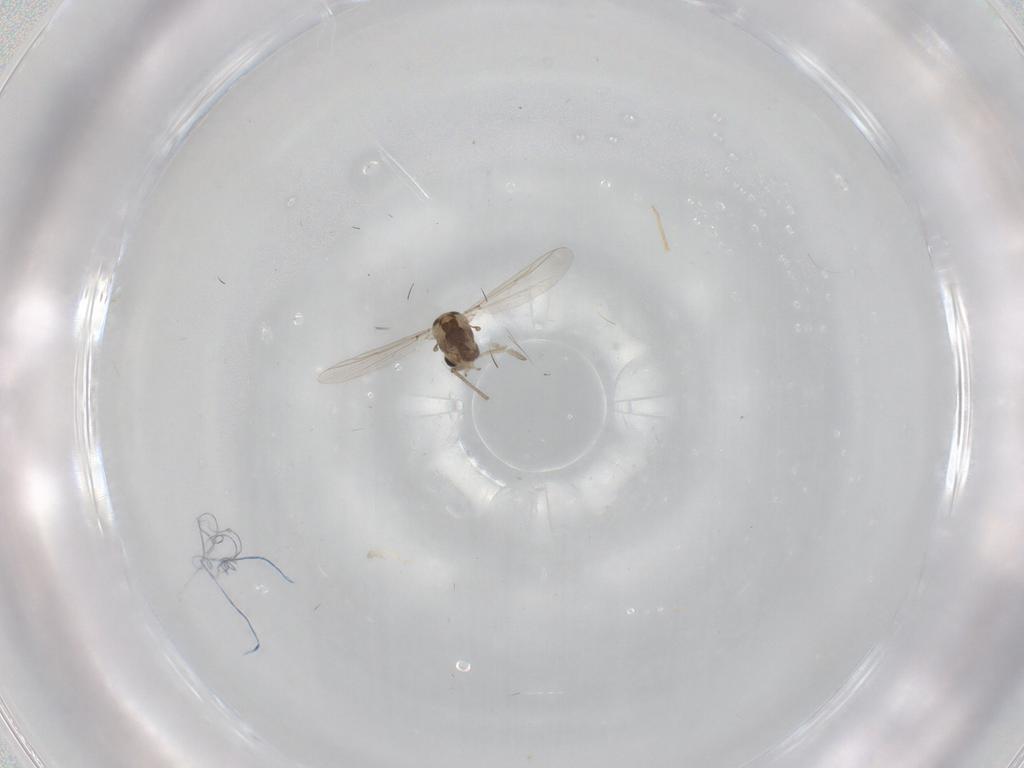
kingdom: Animalia
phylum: Arthropoda
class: Insecta
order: Diptera
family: Chironomidae
